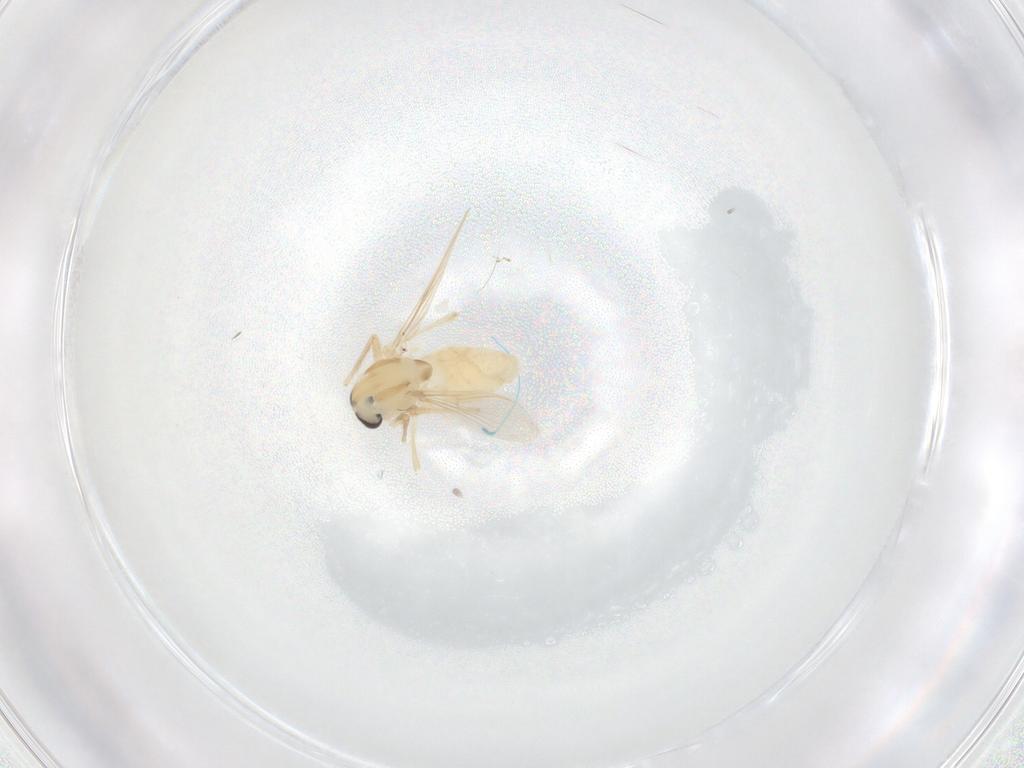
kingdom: Animalia
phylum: Arthropoda
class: Insecta
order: Diptera
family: Chironomidae
